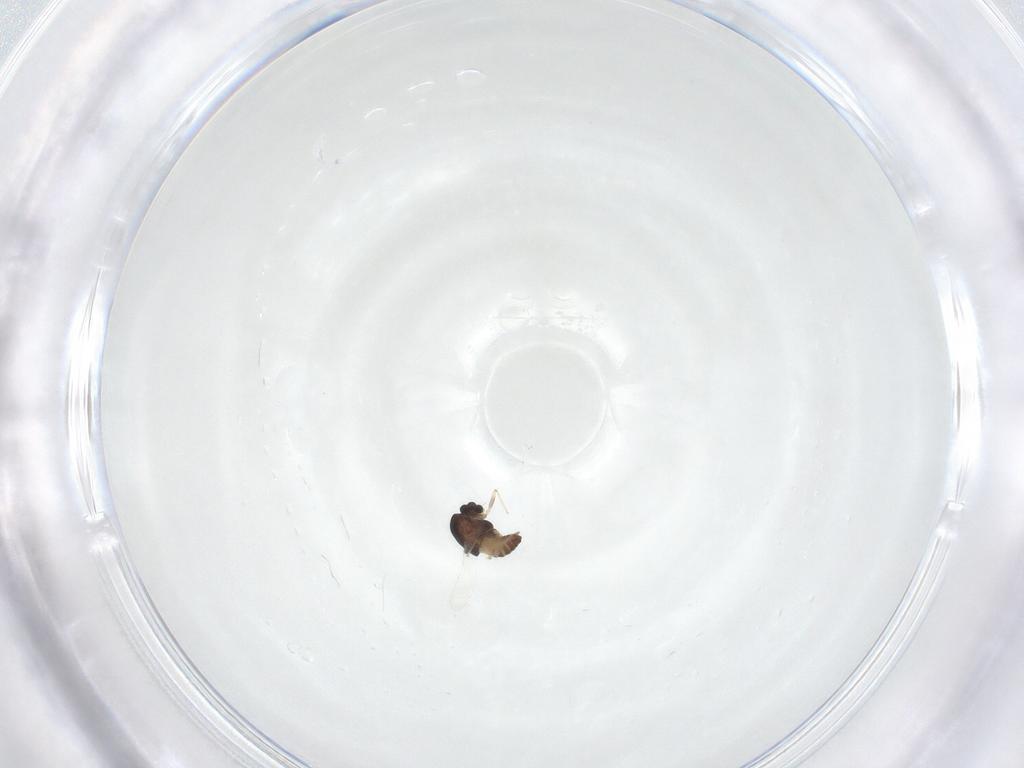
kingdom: Animalia
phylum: Arthropoda
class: Insecta
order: Diptera
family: Chironomidae
